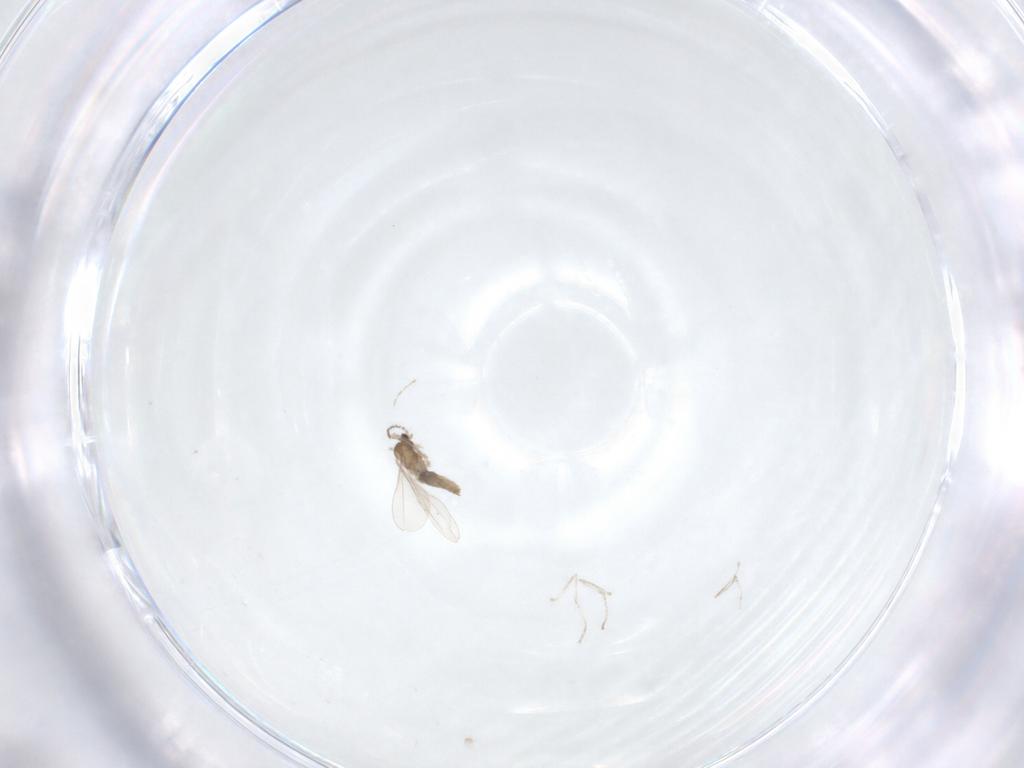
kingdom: Animalia
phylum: Arthropoda
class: Insecta
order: Diptera
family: Cecidomyiidae
